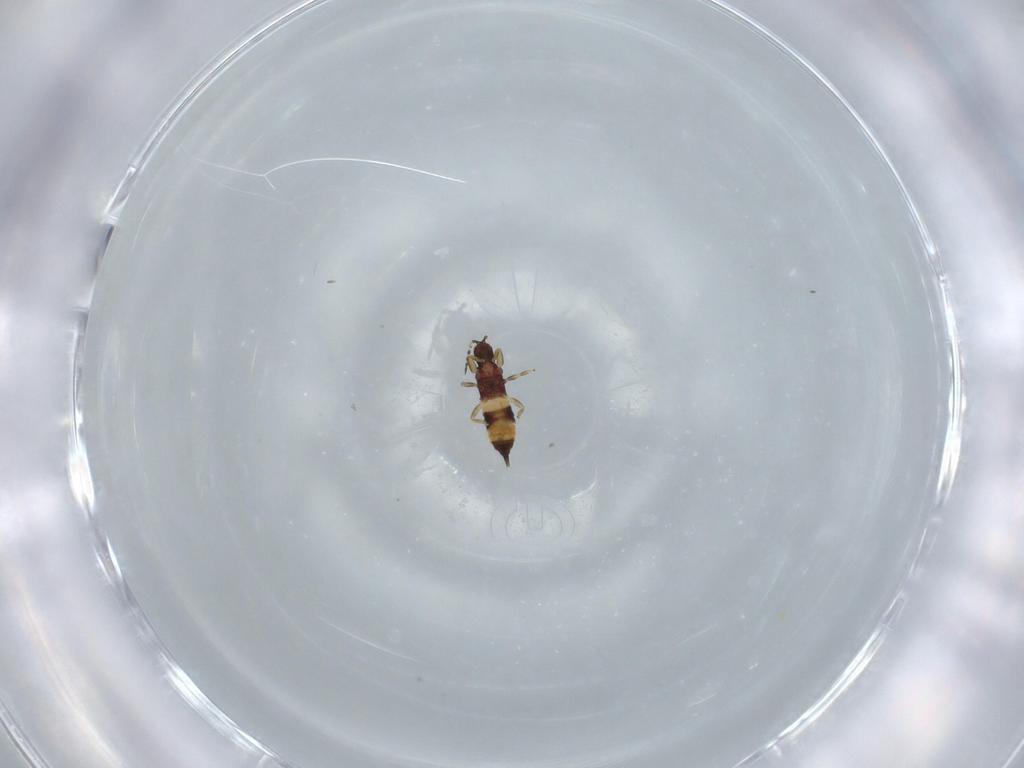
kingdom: Animalia
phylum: Arthropoda
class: Insecta
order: Thysanoptera
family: Phlaeothripidae
